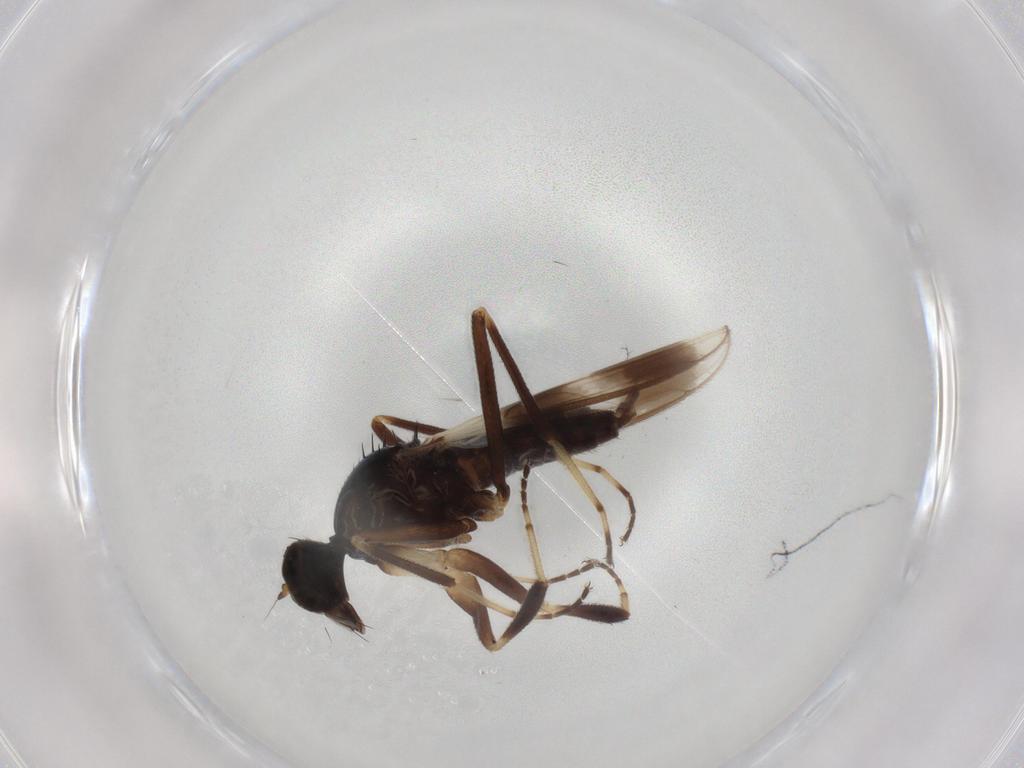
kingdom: Animalia
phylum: Arthropoda
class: Insecta
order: Diptera
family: Hybotidae
